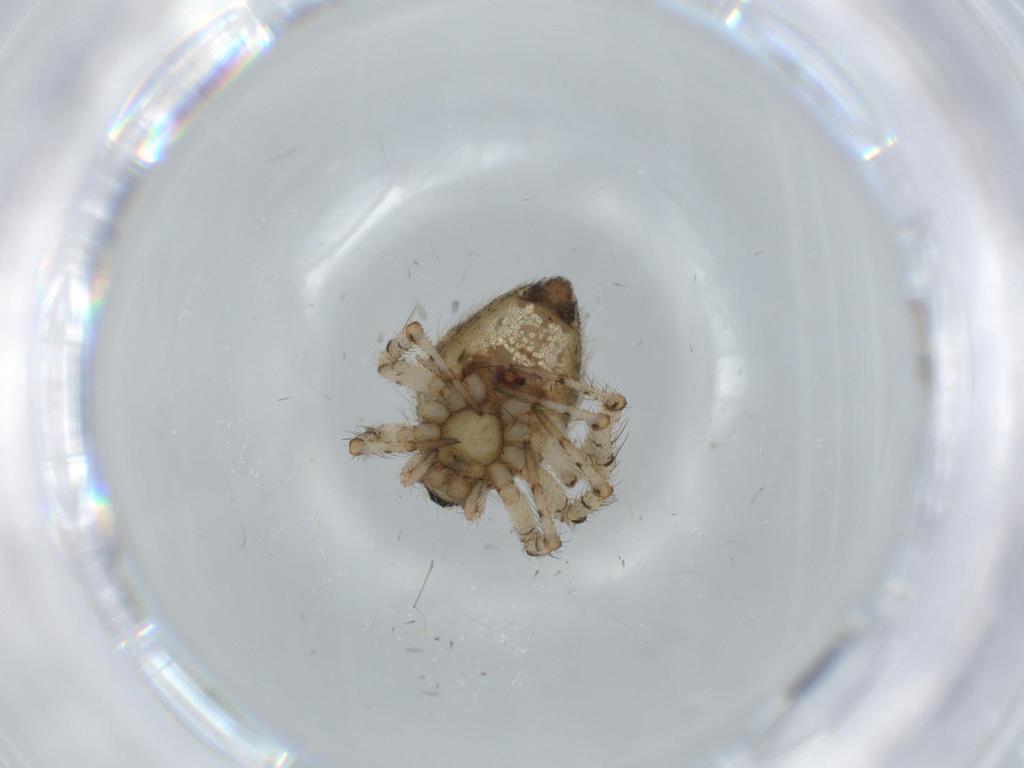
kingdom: Animalia
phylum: Arthropoda
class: Arachnida
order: Araneae
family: Theridiidae
